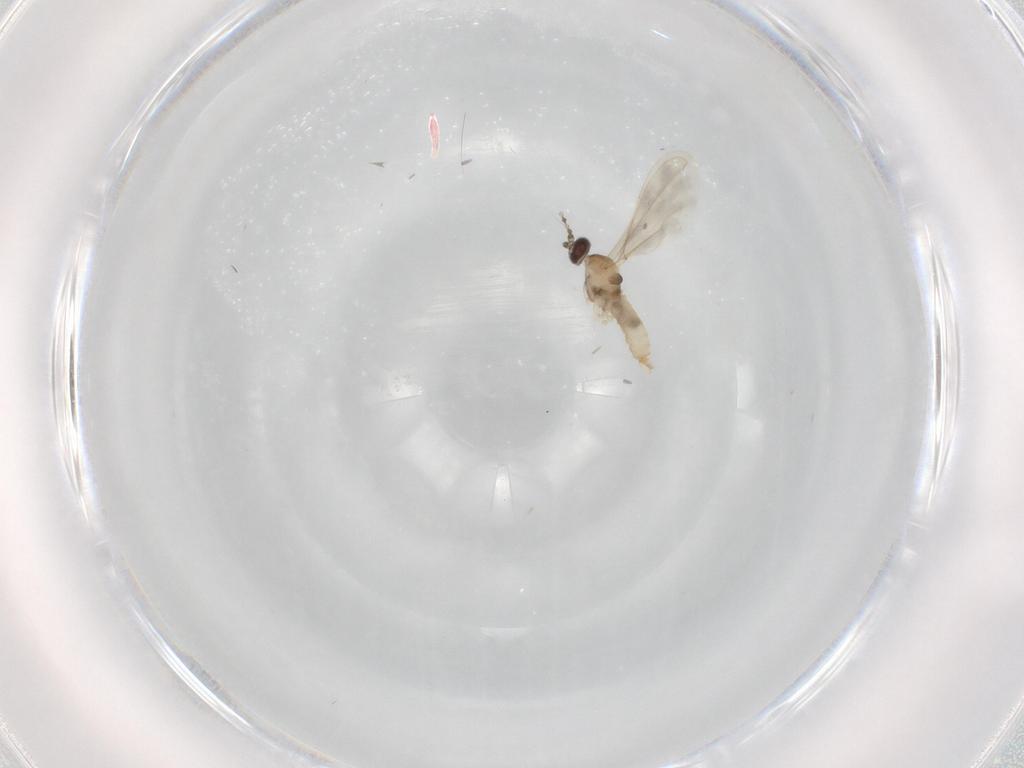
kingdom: Animalia
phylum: Arthropoda
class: Insecta
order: Diptera
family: Cecidomyiidae
